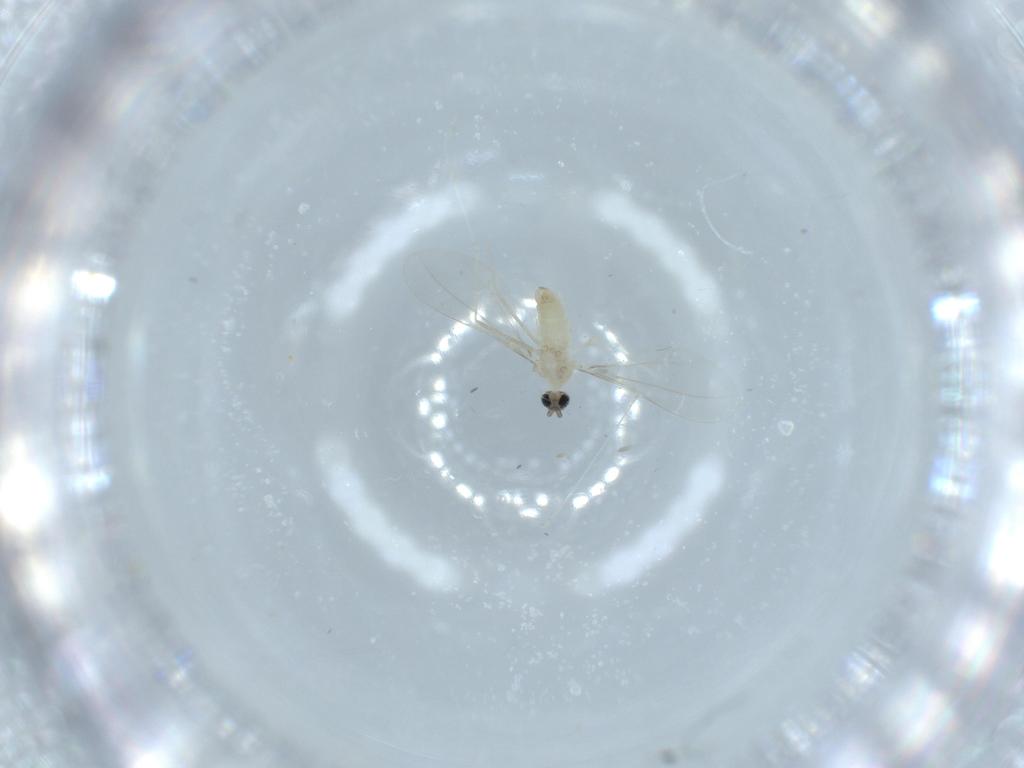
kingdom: Animalia
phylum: Arthropoda
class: Insecta
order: Diptera
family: Cecidomyiidae
